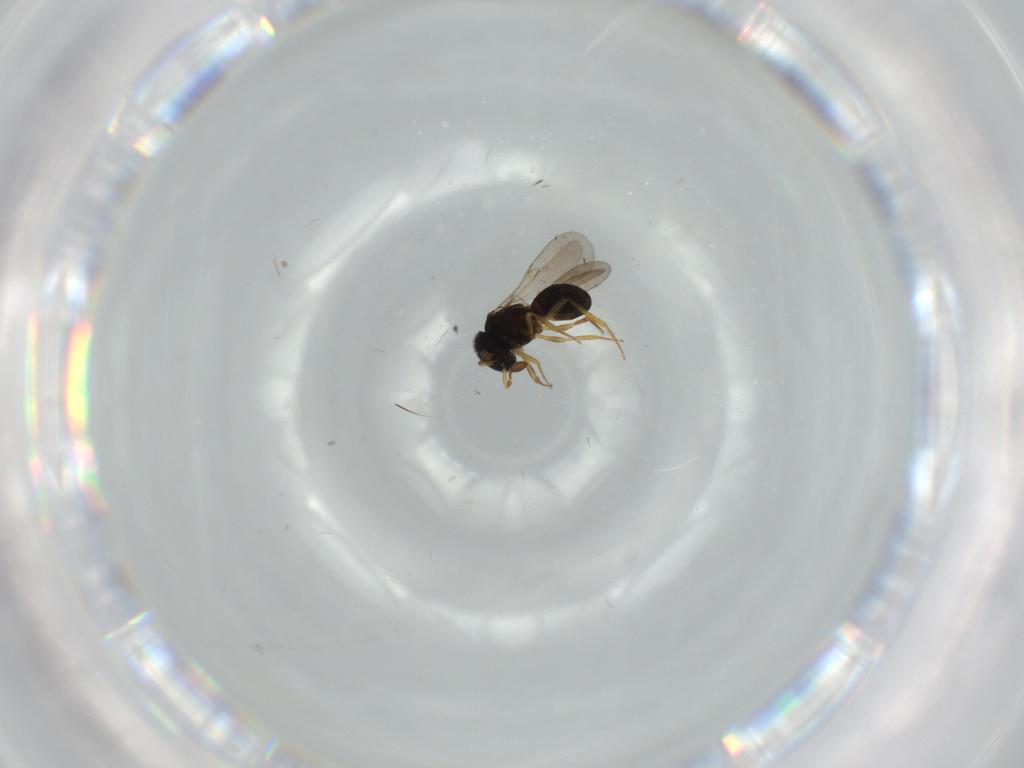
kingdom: Animalia
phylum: Arthropoda
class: Insecta
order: Hymenoptera
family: Scelionidae
